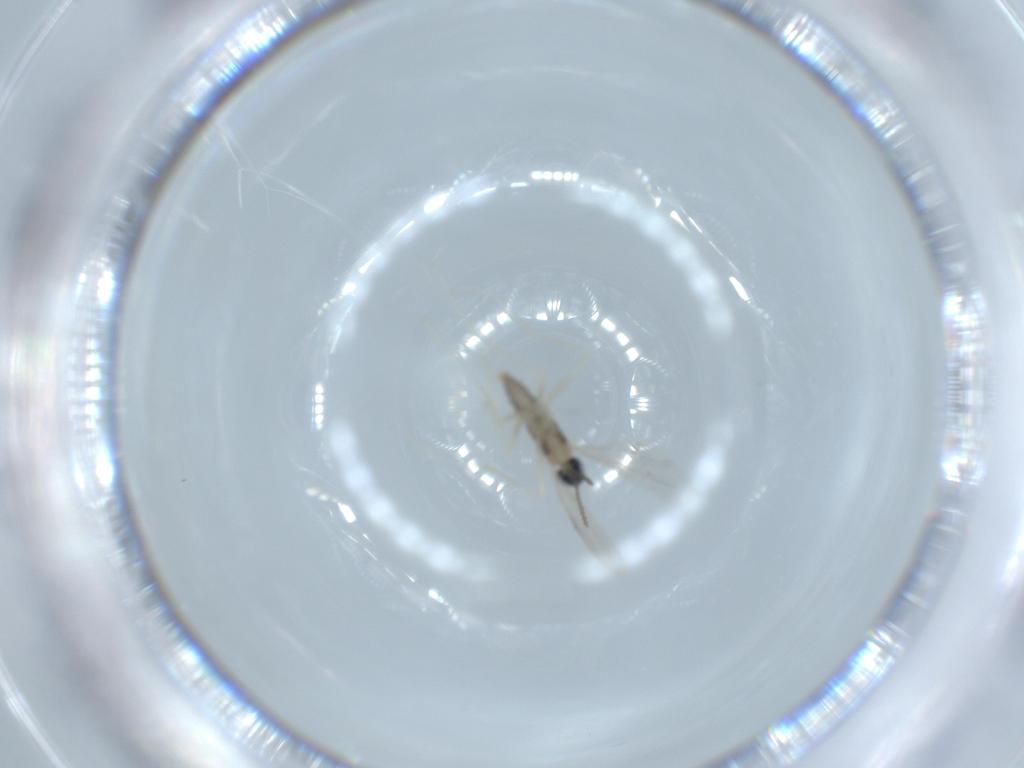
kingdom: Animalia
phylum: Arthropoda
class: Insecta
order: Diptera
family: Cecidomyiidae
